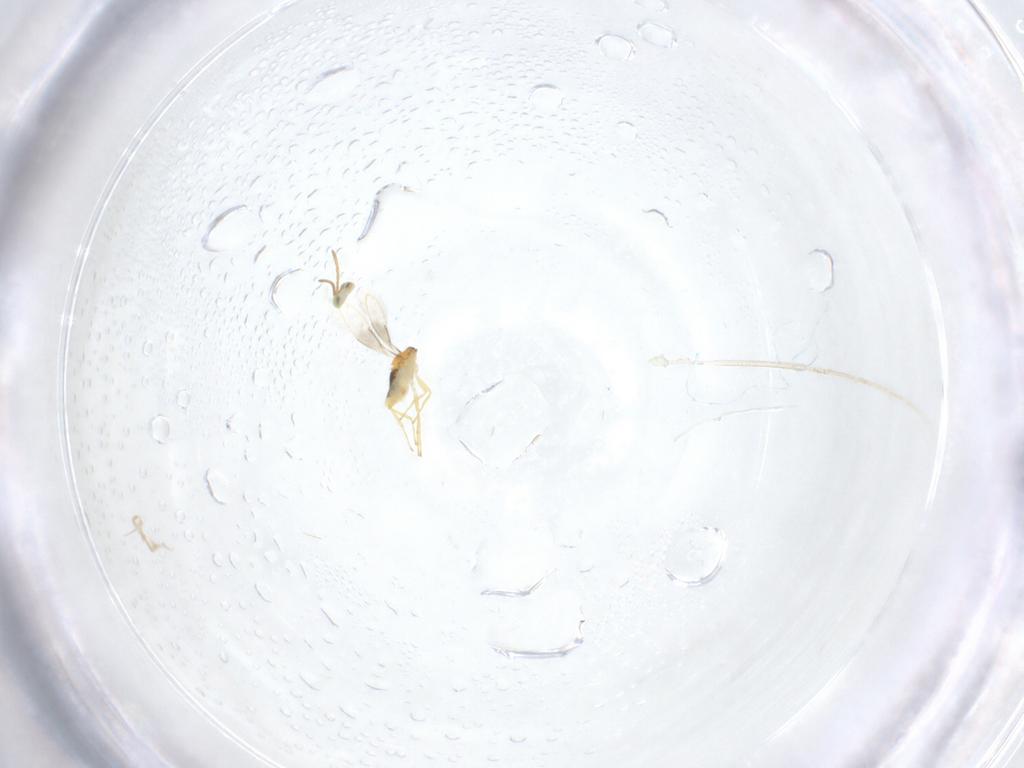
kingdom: Animalia
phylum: Arthropoda
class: Insecta
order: Hymenoptera
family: Aphelinidae
